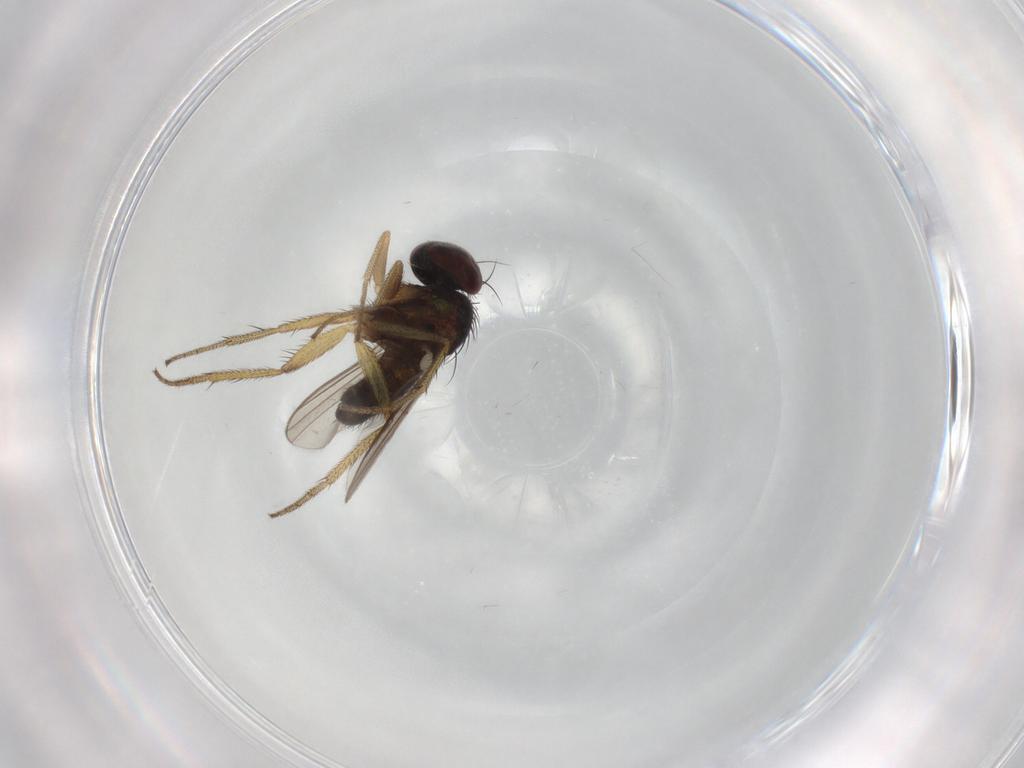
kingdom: Animalia
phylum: Arthropoda
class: Insecta
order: Diptera
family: Dolichopodidae
